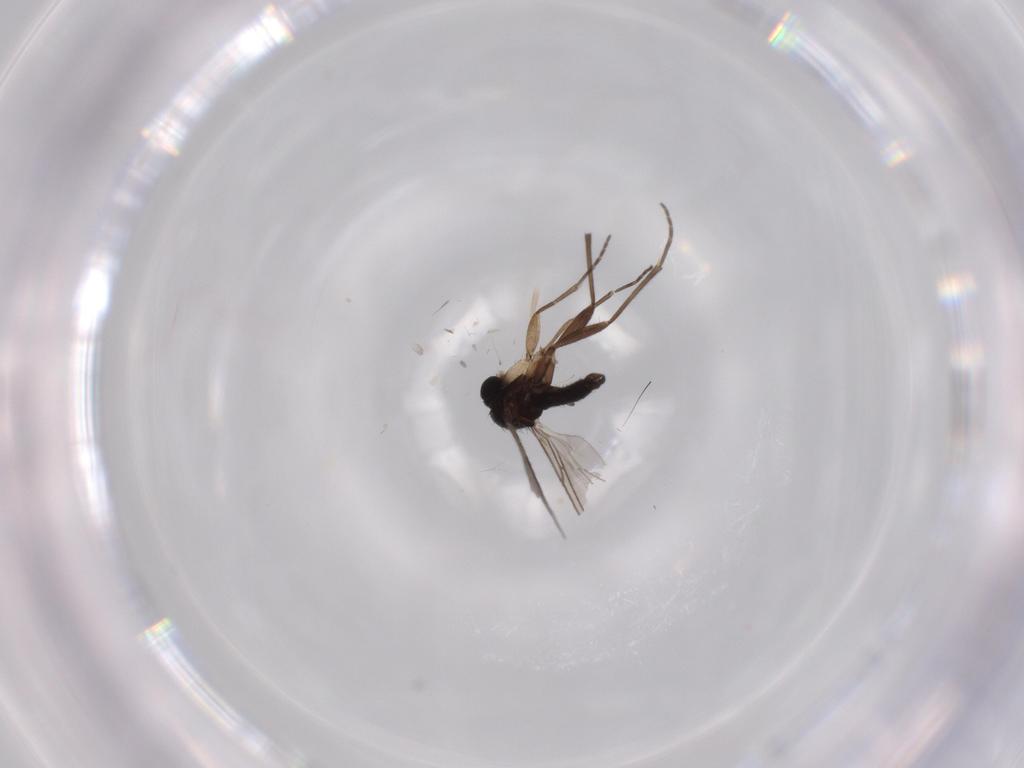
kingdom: Animalia
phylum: Arthropoda
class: Insecta
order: Diptera
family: Sciaridae
